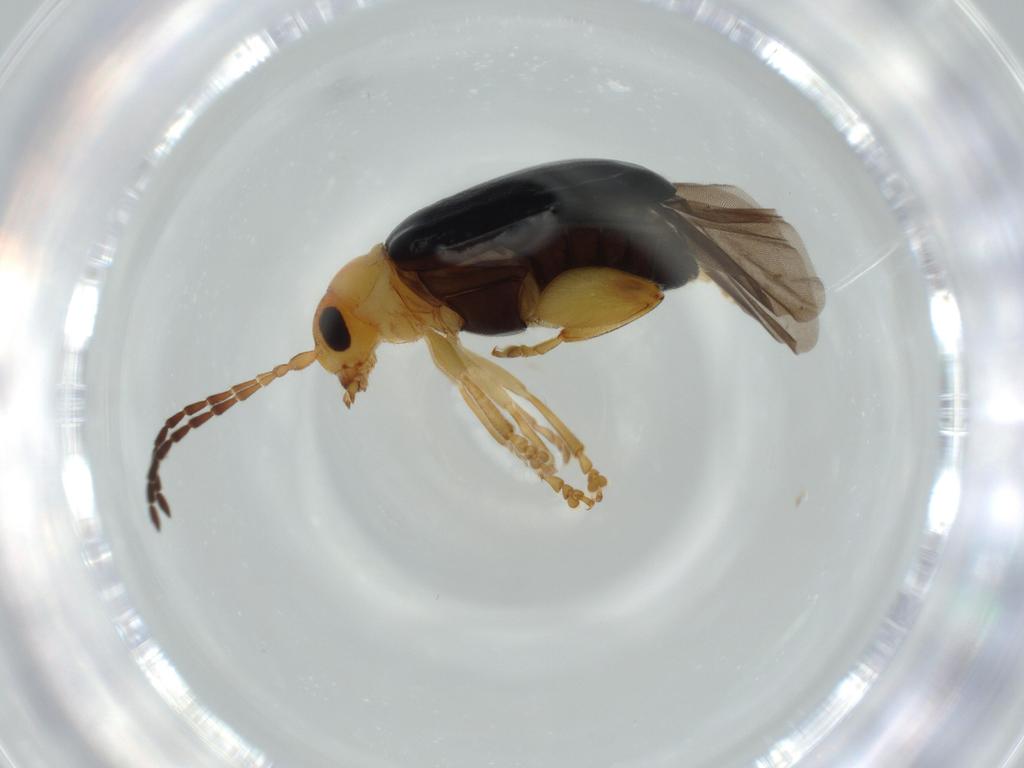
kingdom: Animalia
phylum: Arthropoda
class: Insecta
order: Coleoptera
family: Chrysomelidae
